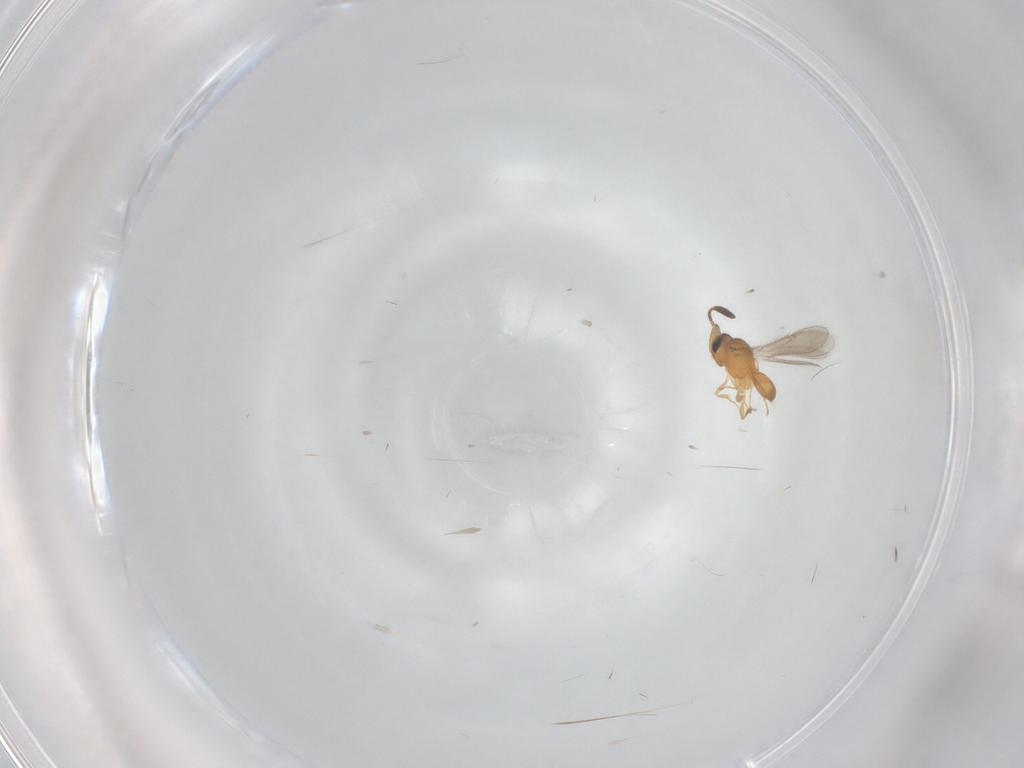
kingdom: Animalia
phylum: Arthropoda
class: Insecta
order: Hymenoptera
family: Scelionidae
